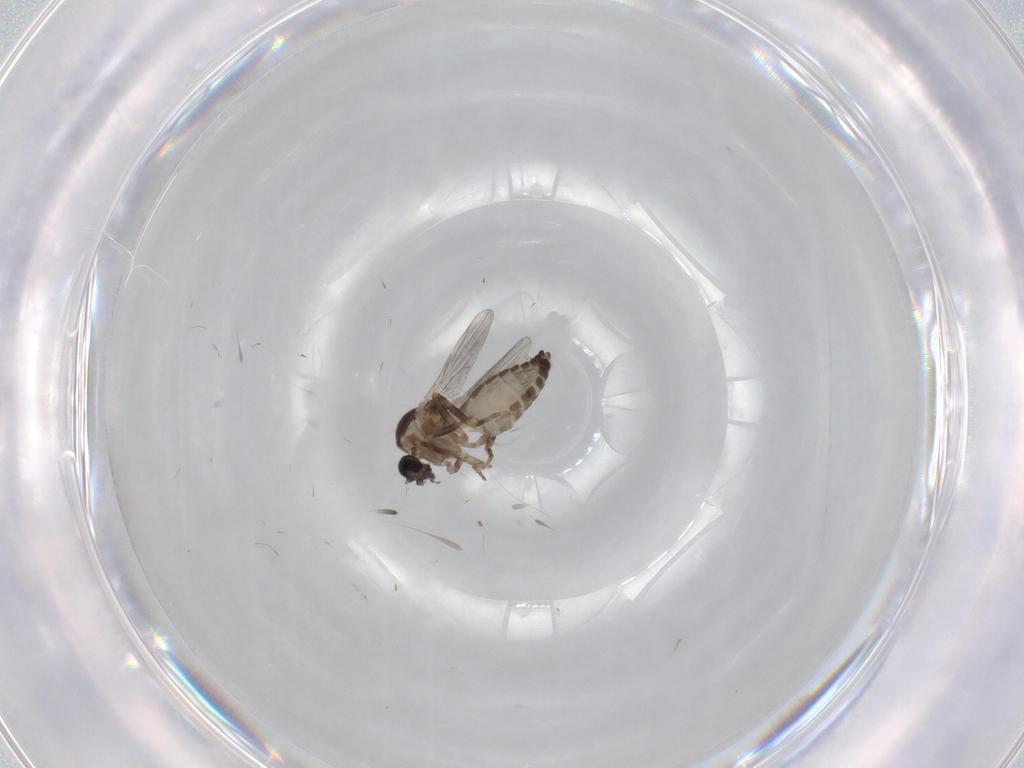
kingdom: Animalia
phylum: Arthropoda
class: Insecta
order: Diptera
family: Ceratopogonidae
